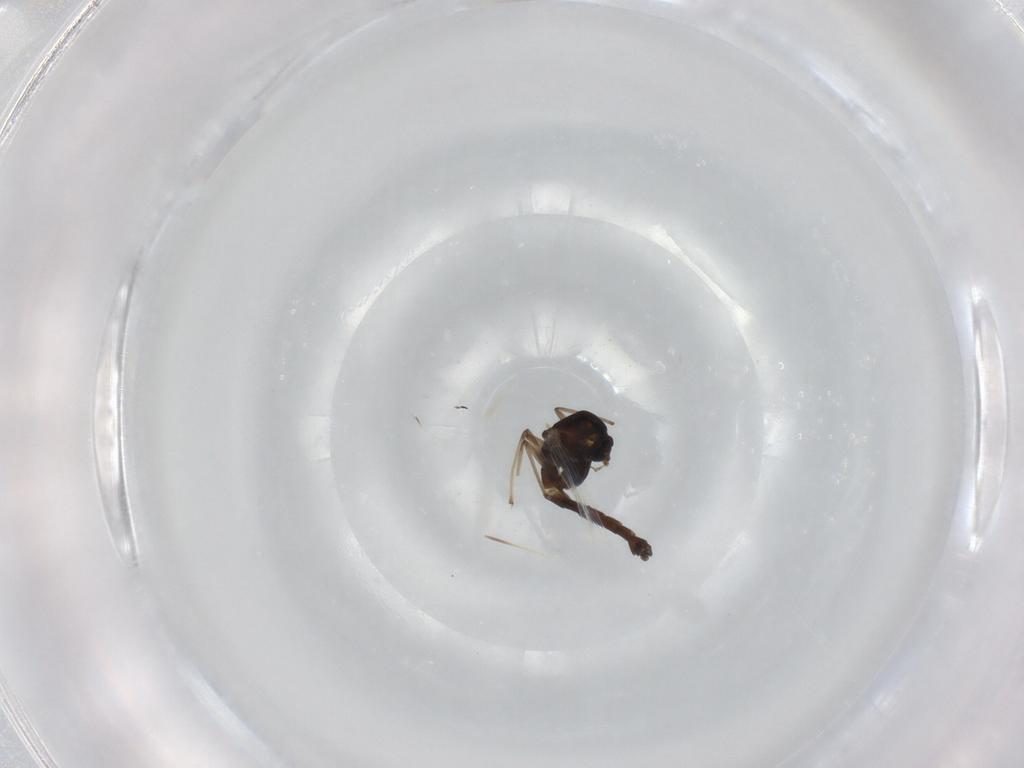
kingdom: Animalia
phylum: Arthropoda
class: Insecta
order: Diptera
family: Chironomidae
